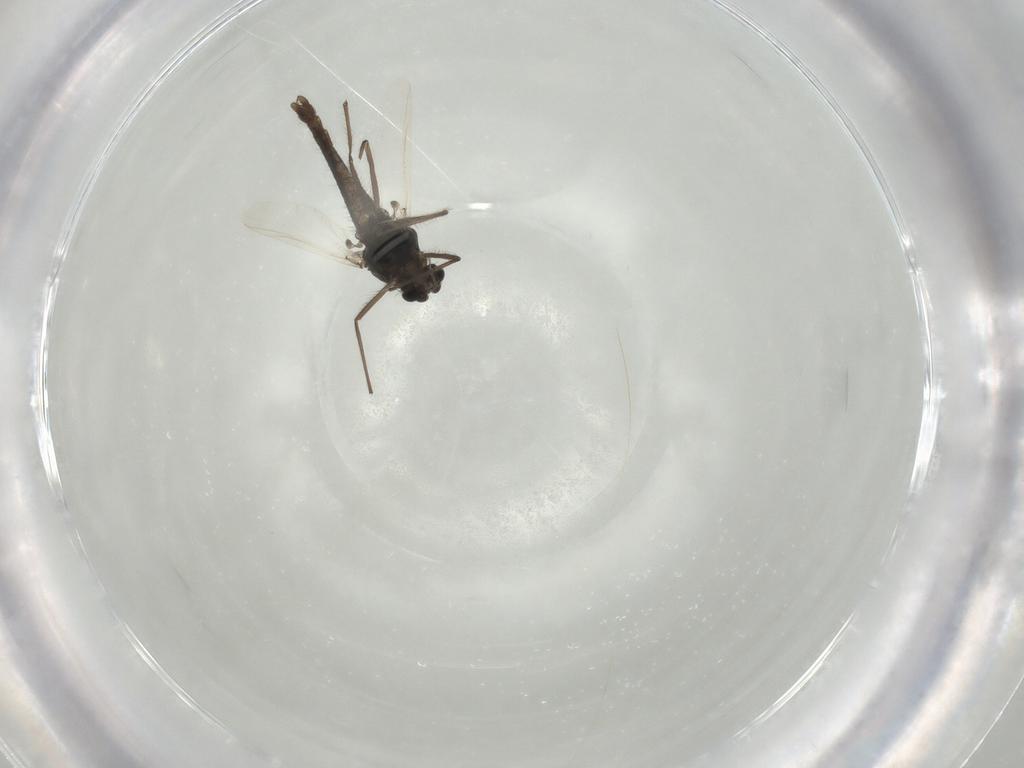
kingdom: Animalia
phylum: Arthropoda
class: Insecta
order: Diptera
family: Chironomidae
